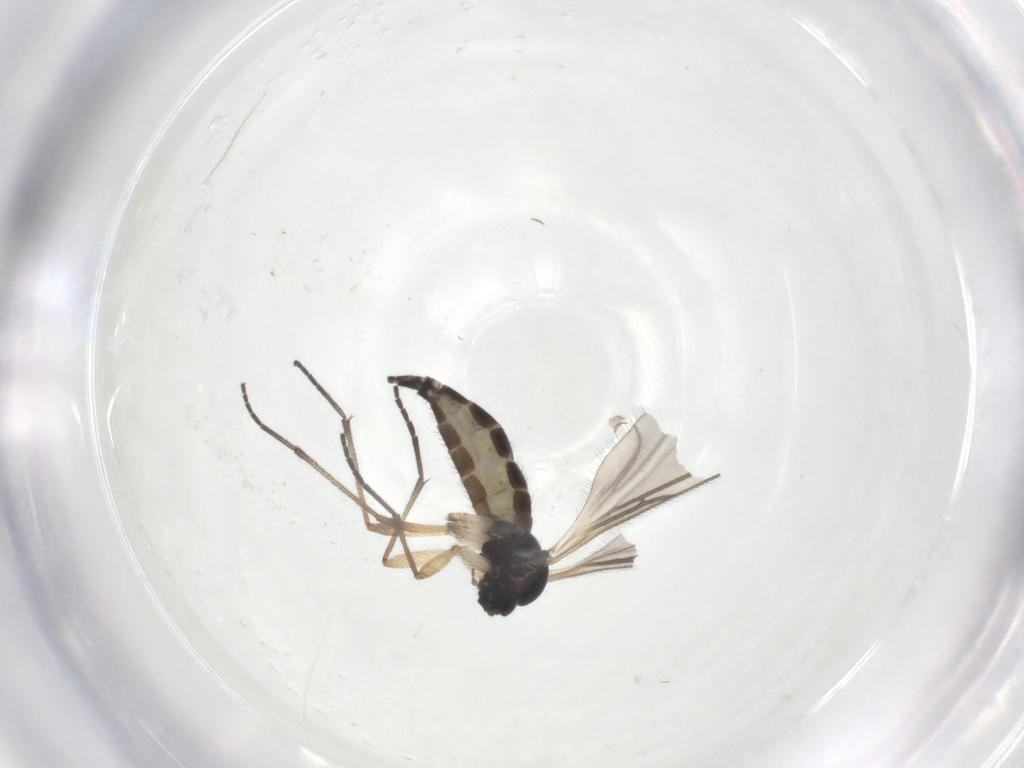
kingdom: Animalia
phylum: Arthropoda
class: Insecta
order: Diptera
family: Sciaridae
